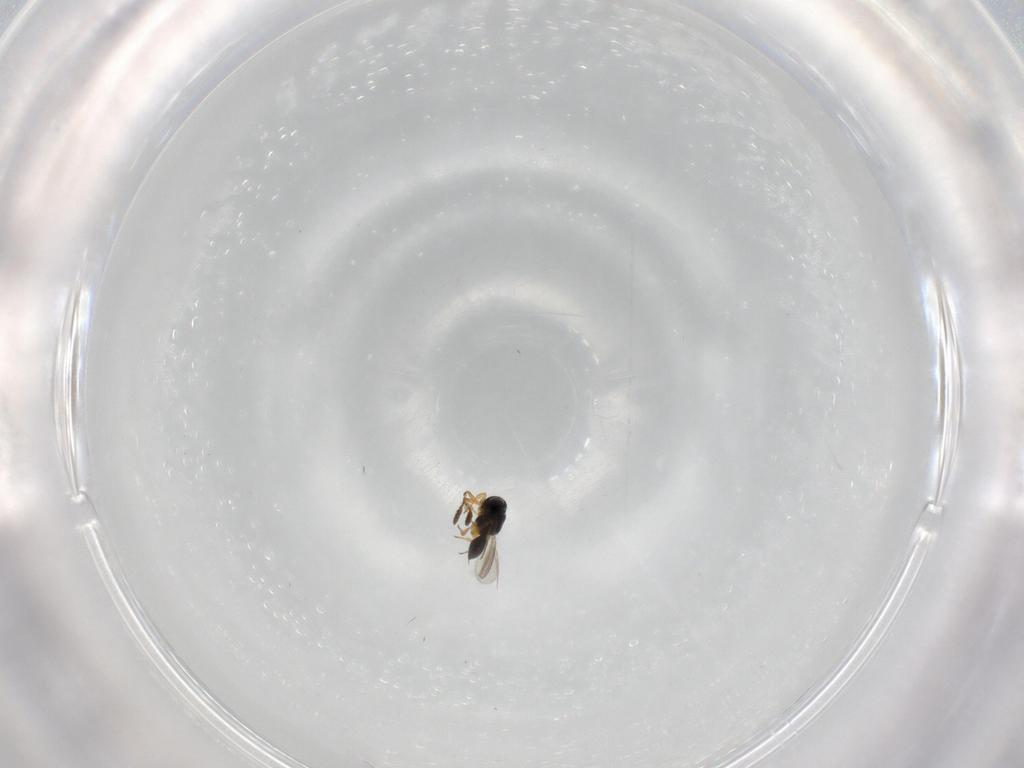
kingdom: Animalia
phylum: Arthropoda
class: Insecta
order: Hymenoptera
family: Scelionidae
